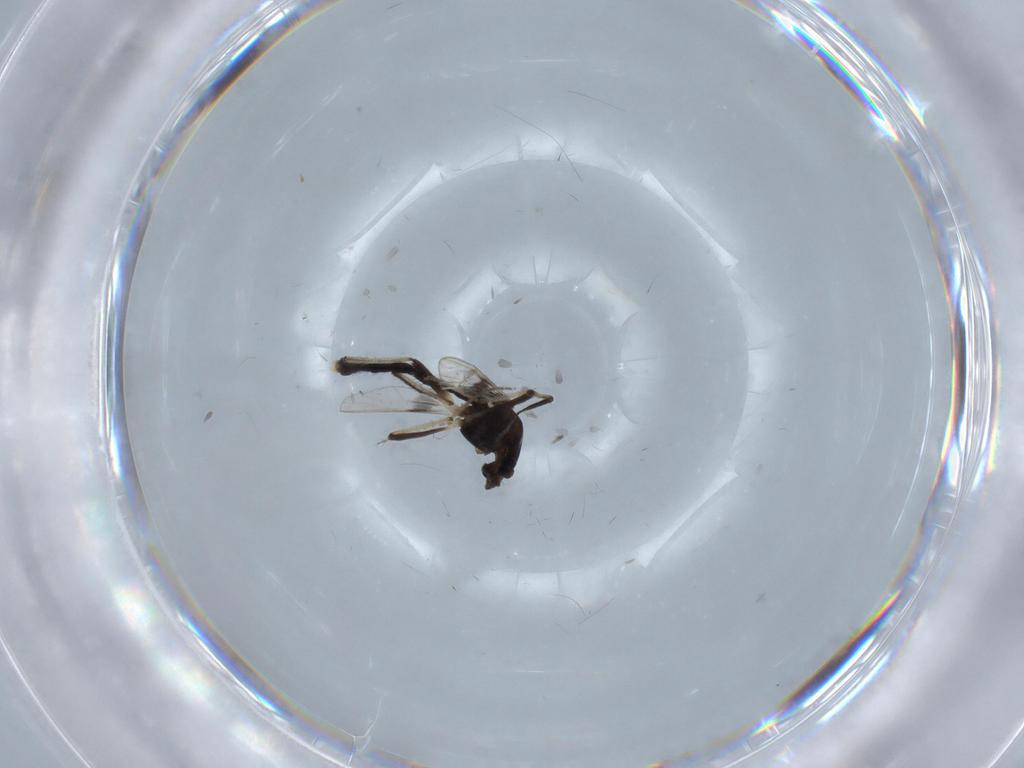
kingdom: Animalia
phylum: Arthropoda
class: Insecta
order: Diptera
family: Chironomidae
